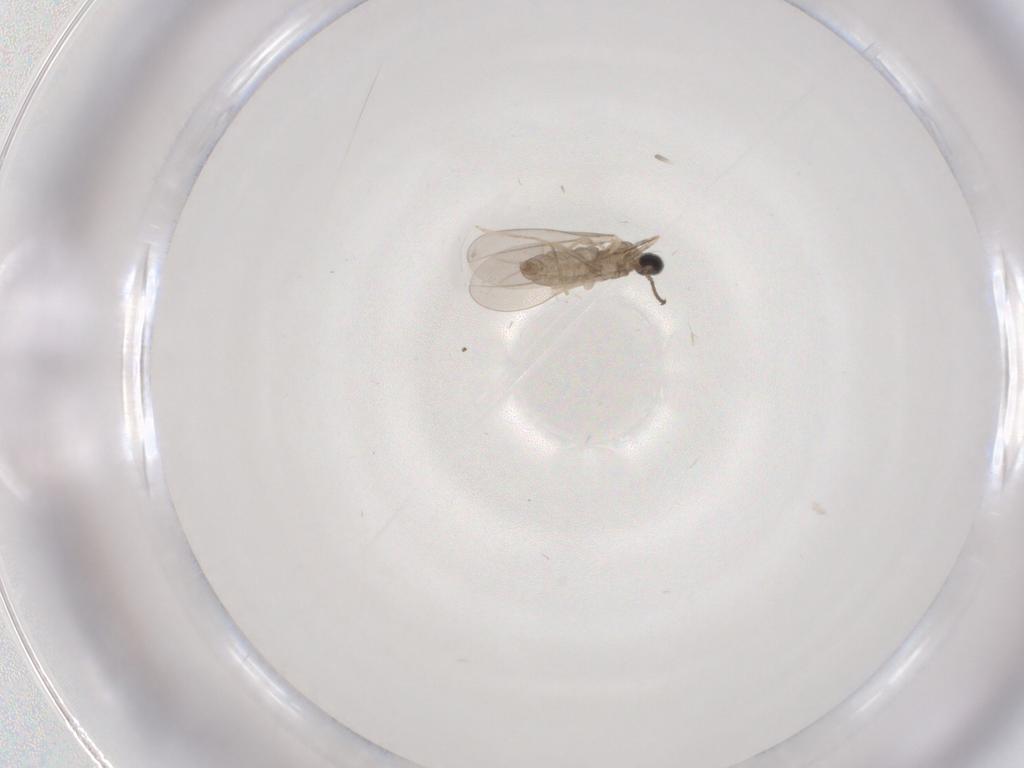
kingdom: Animalia
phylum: Arthropoda
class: Insecta
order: Diptera
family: Cecidomyiidae
